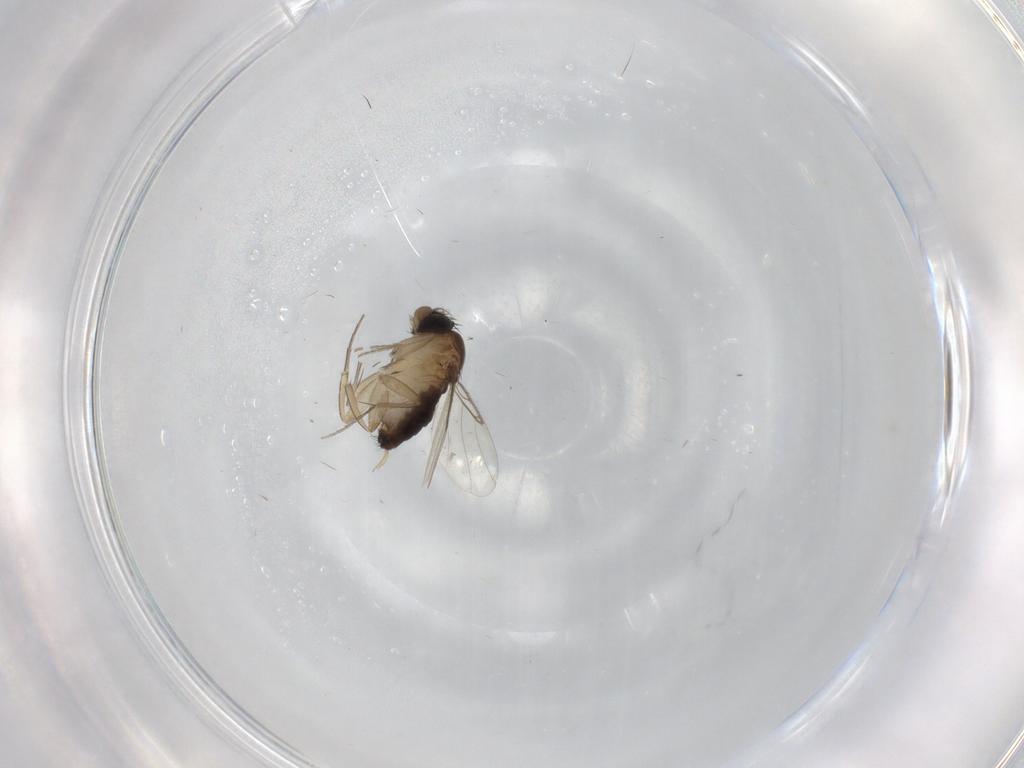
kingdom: Animalia
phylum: Arthropoda
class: Insecta
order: Diptera
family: Phoridae
